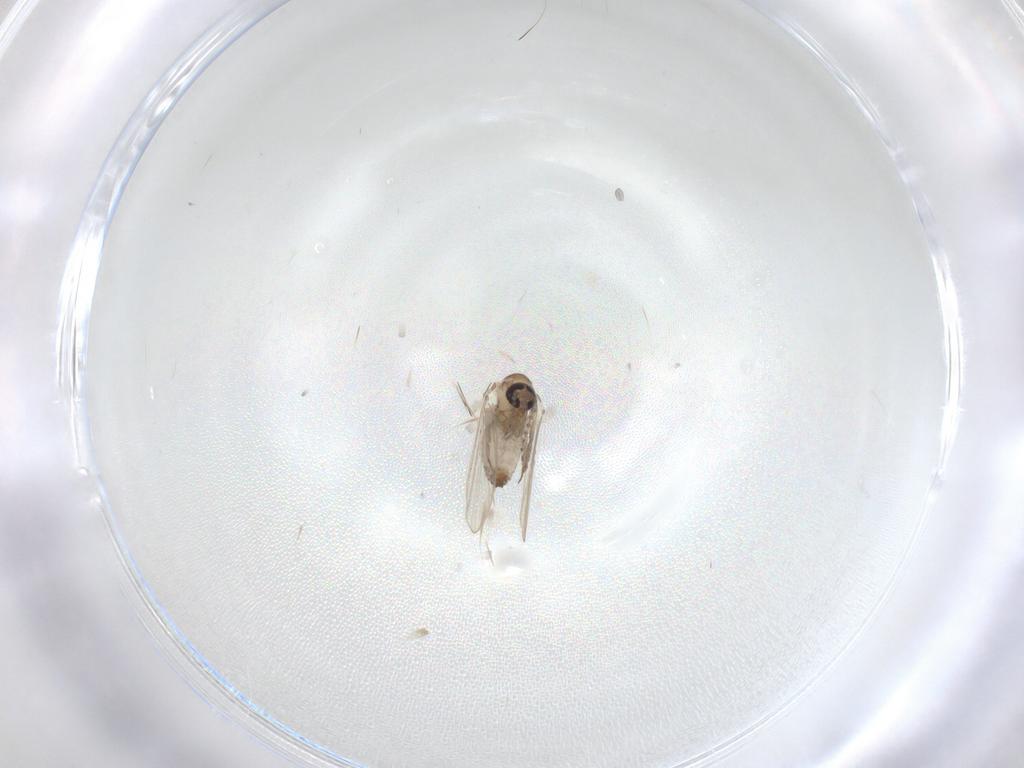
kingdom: Animalia
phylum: Arthropoda
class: Insecta
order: Diptera
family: Psychodidae
